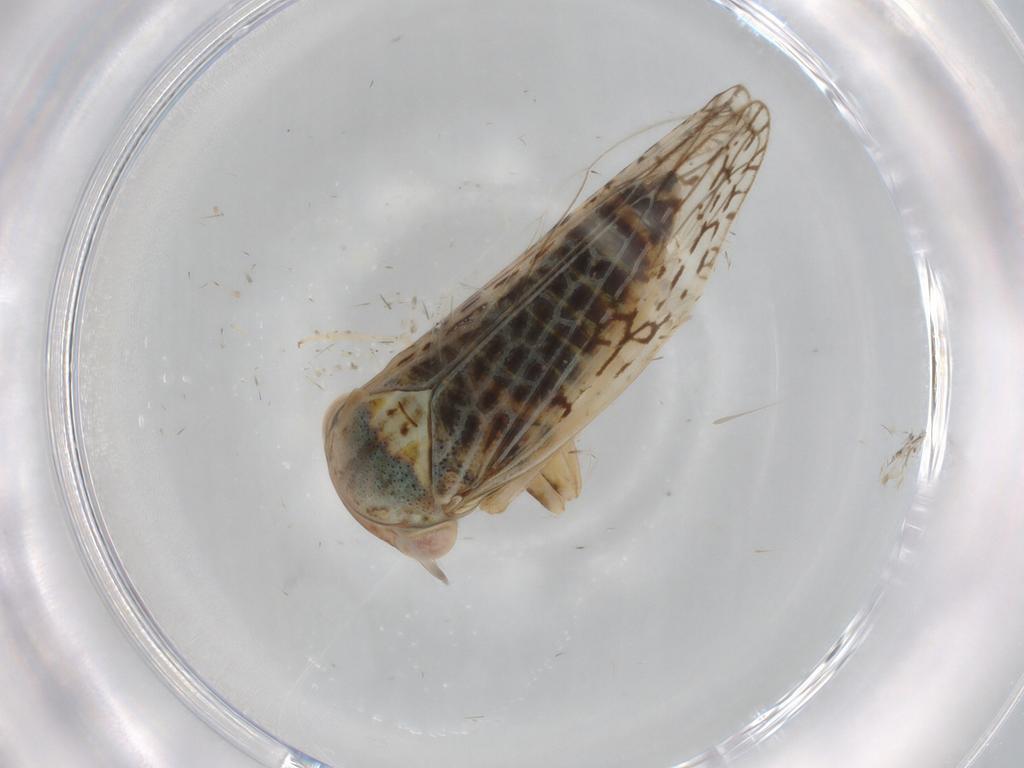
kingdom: Animalia
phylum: Arthropoda
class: Insecta
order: Hemiptera
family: Cicadellidae
